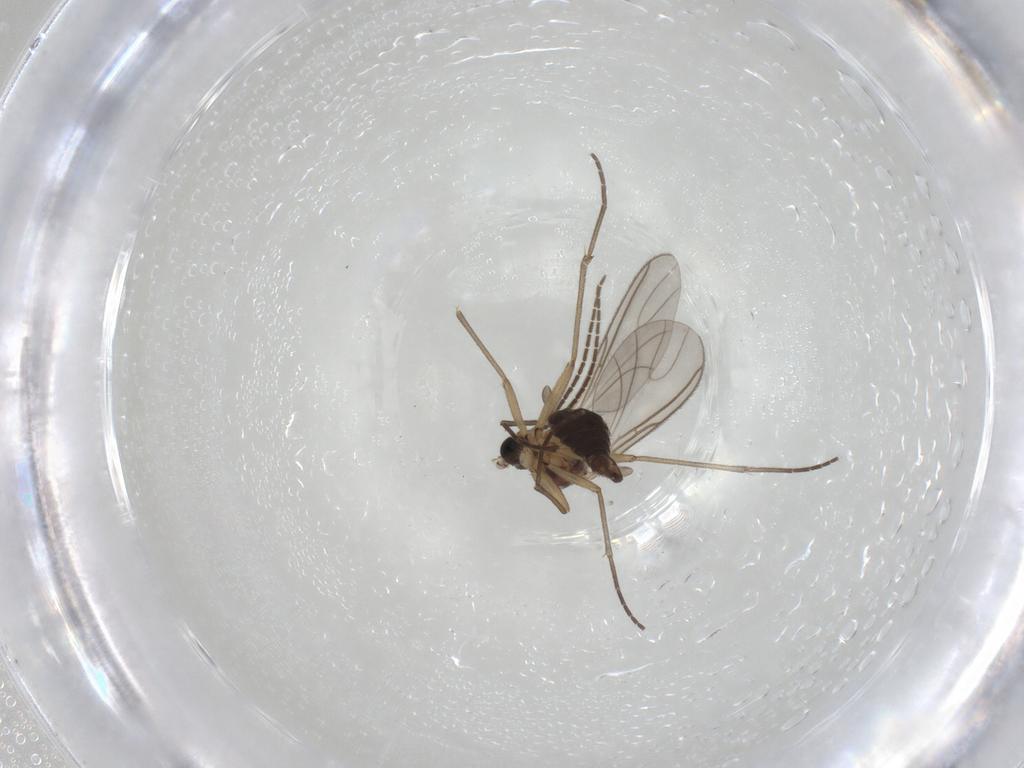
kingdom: Animalia
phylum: Arthropoda
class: Insecta
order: Diptera
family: Sciaridae
